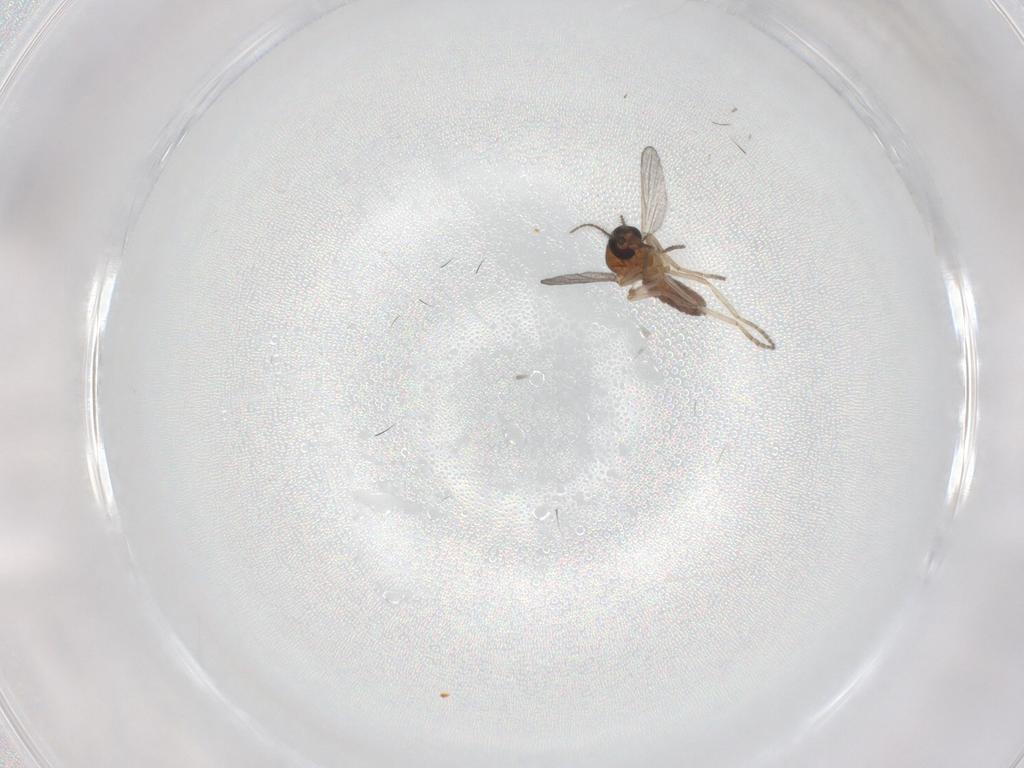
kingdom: Animalia
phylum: Arthropoda
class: Insecta
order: Diptera
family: Ceratopogonidae
